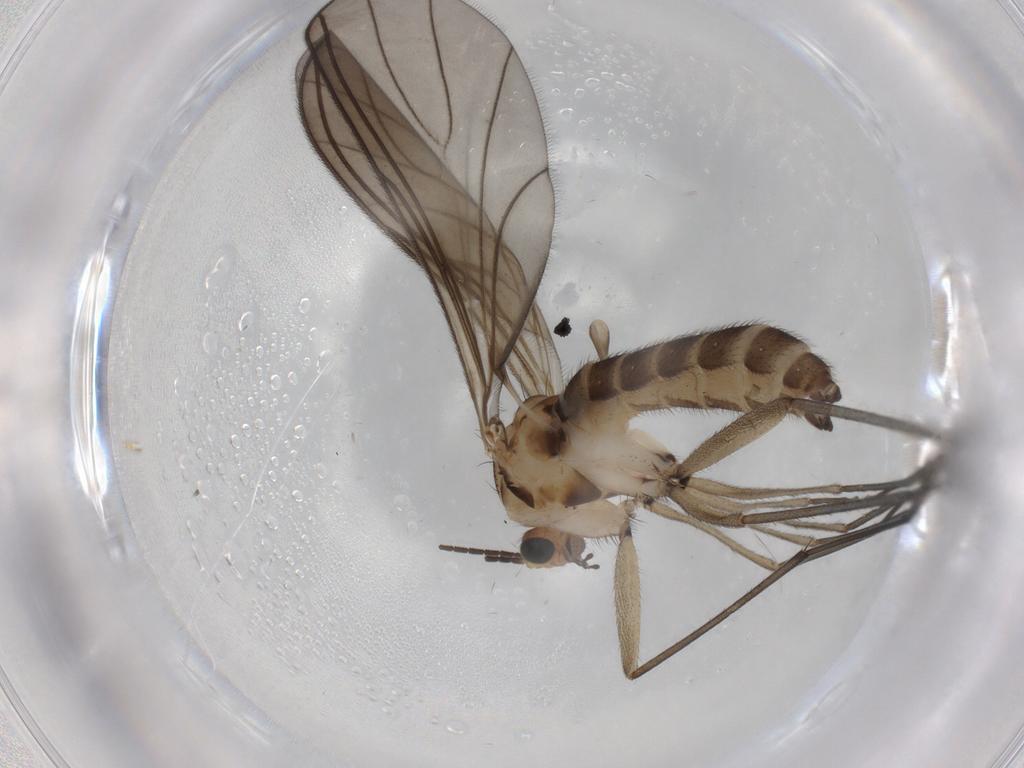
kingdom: Animalia
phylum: Arthropoda
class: Insecta
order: Diptera
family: Sciaridae
